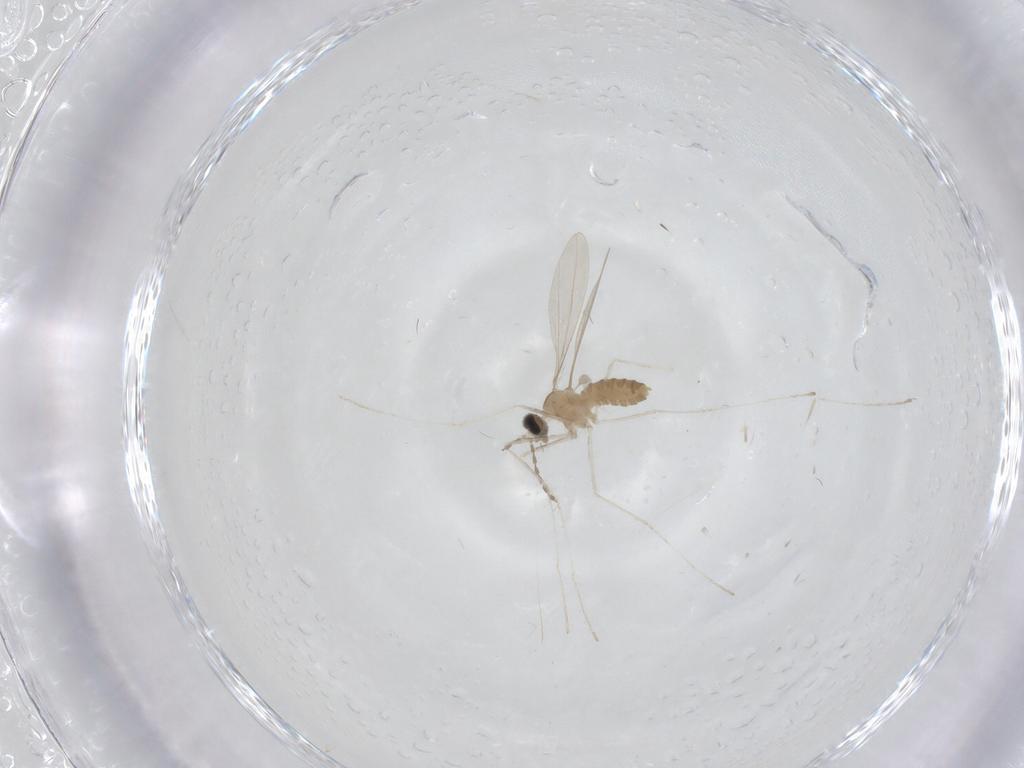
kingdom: Animalia
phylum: Arthropoda
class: Insecta
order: Diptera
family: Cecidomyiidae
